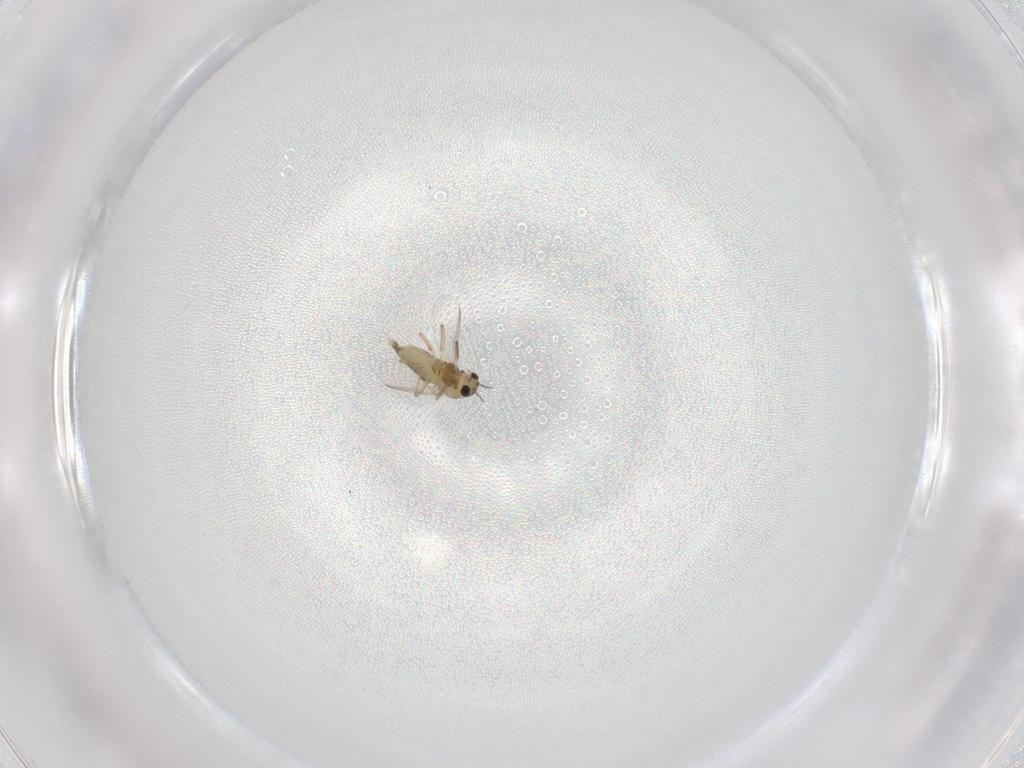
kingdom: Animalia
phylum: Arthropoda
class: Insecta
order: Diptera
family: Chironomidae
